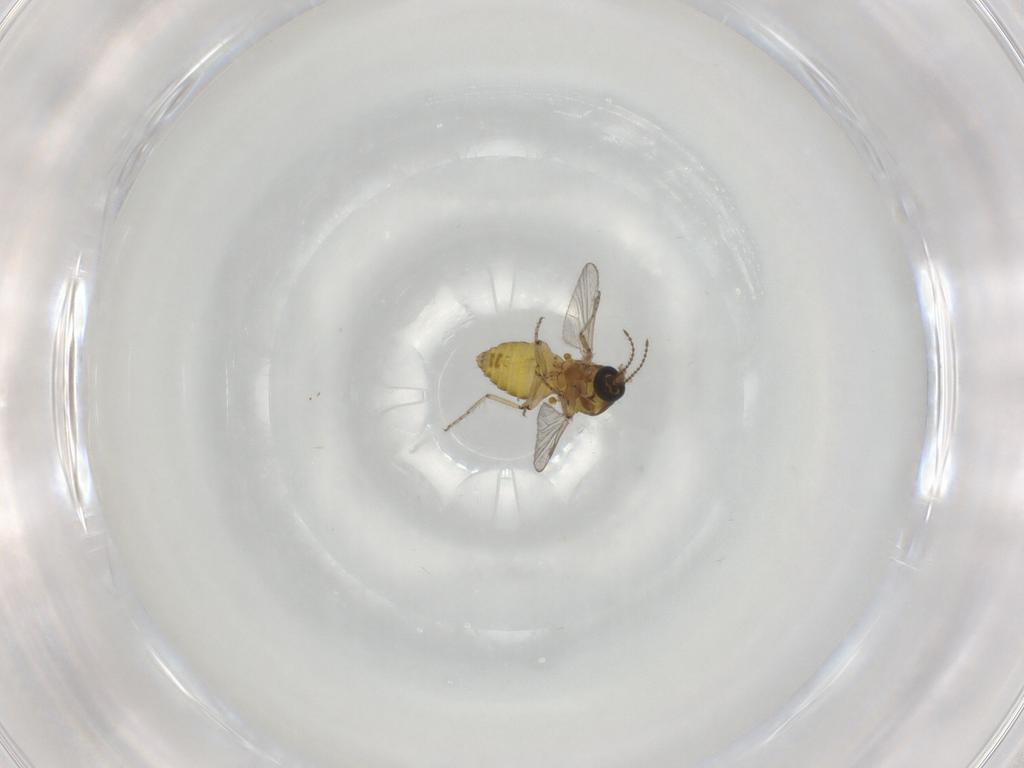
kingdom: Animalia
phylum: Arthropoda
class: Insecta
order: Diptera
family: Ceratopogonidae
